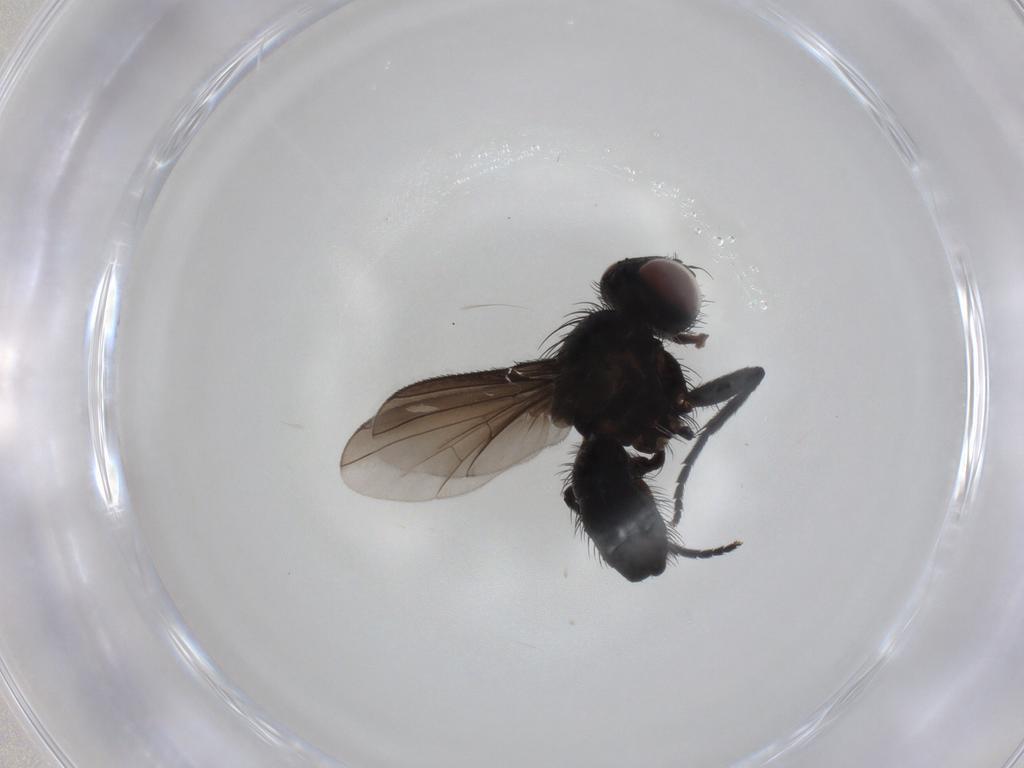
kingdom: Animalia
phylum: Arthropoda
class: Insecta
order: Diptera
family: Tachinidae
